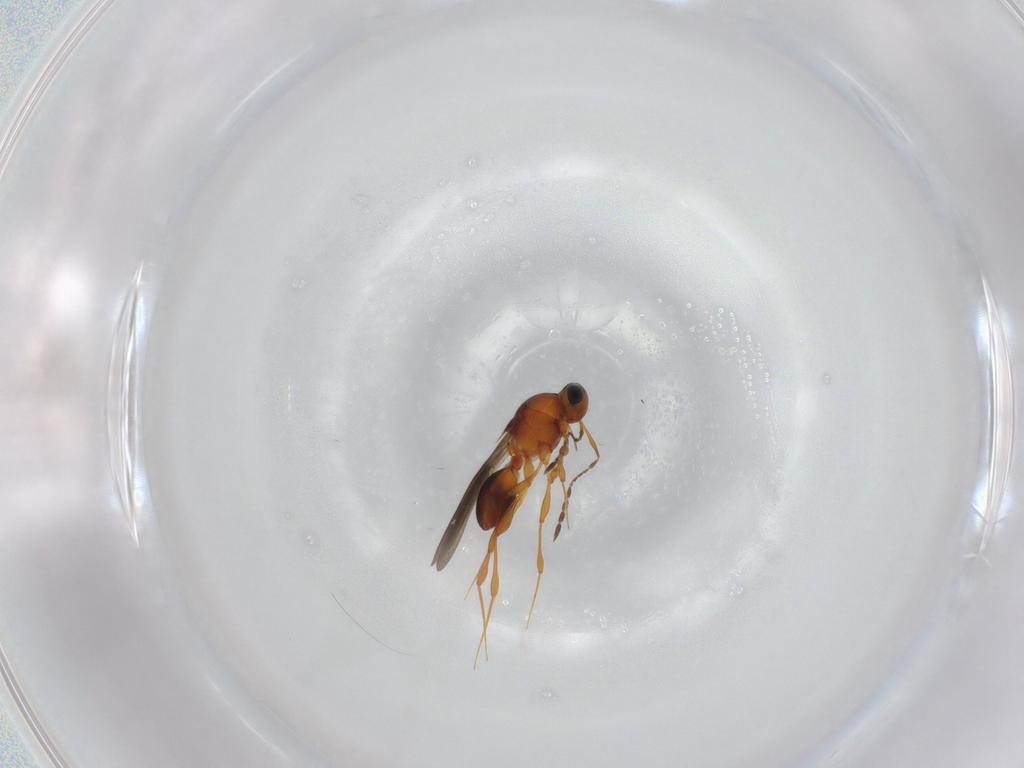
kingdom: Animalia
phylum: Arthropoda
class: Insecta
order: Hymenoptera
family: Platygastridae
